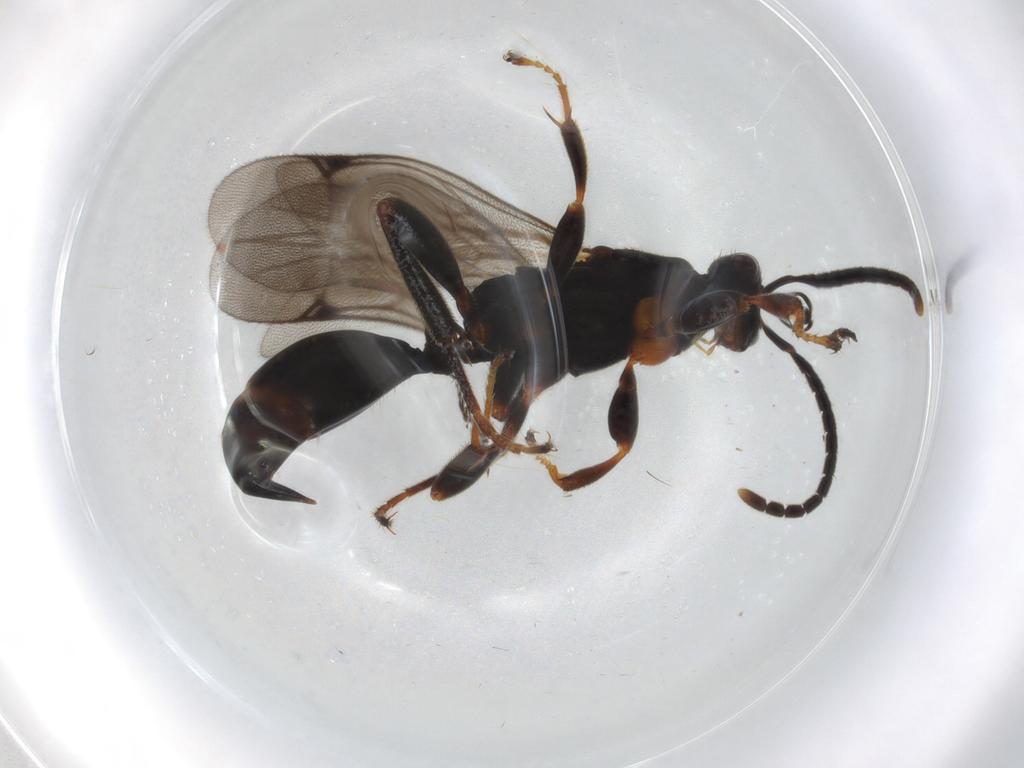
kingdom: Animalia
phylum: Arthropoda
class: Insecta
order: Hymenoptera
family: Proctotrupidae
